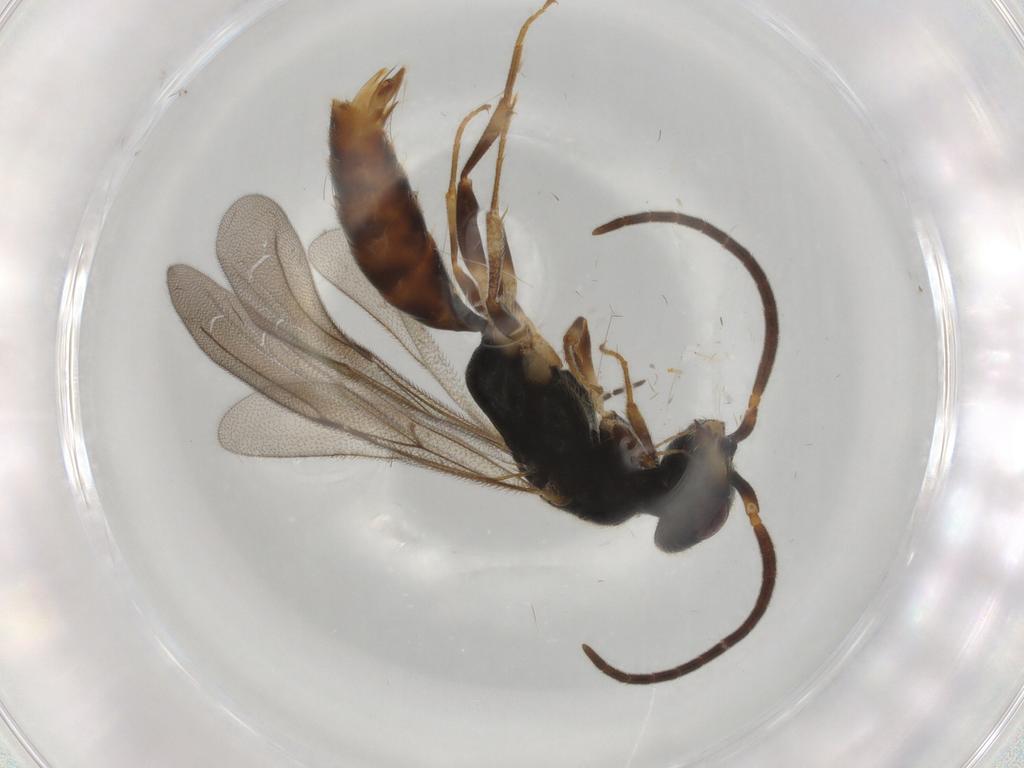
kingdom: Animalia
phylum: Arthropoda
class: Insecta
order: Hymenoptera
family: Bethylidae
